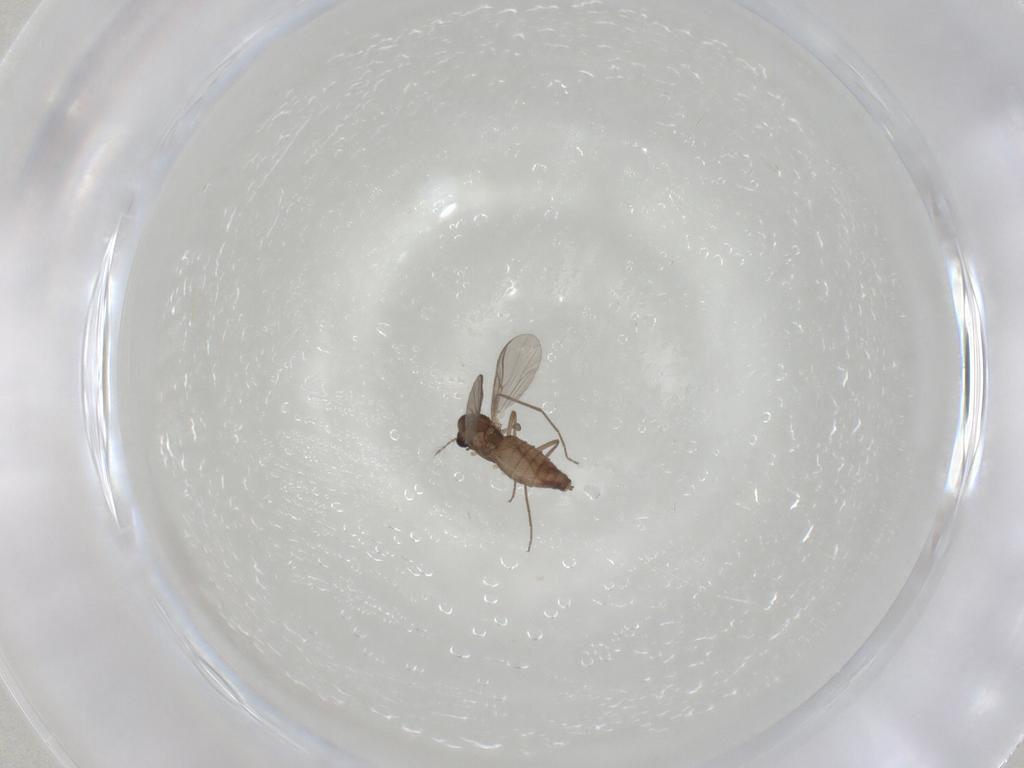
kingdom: Animalia
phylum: Arthropoda
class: Insecta
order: Diptera
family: Chironomidae
